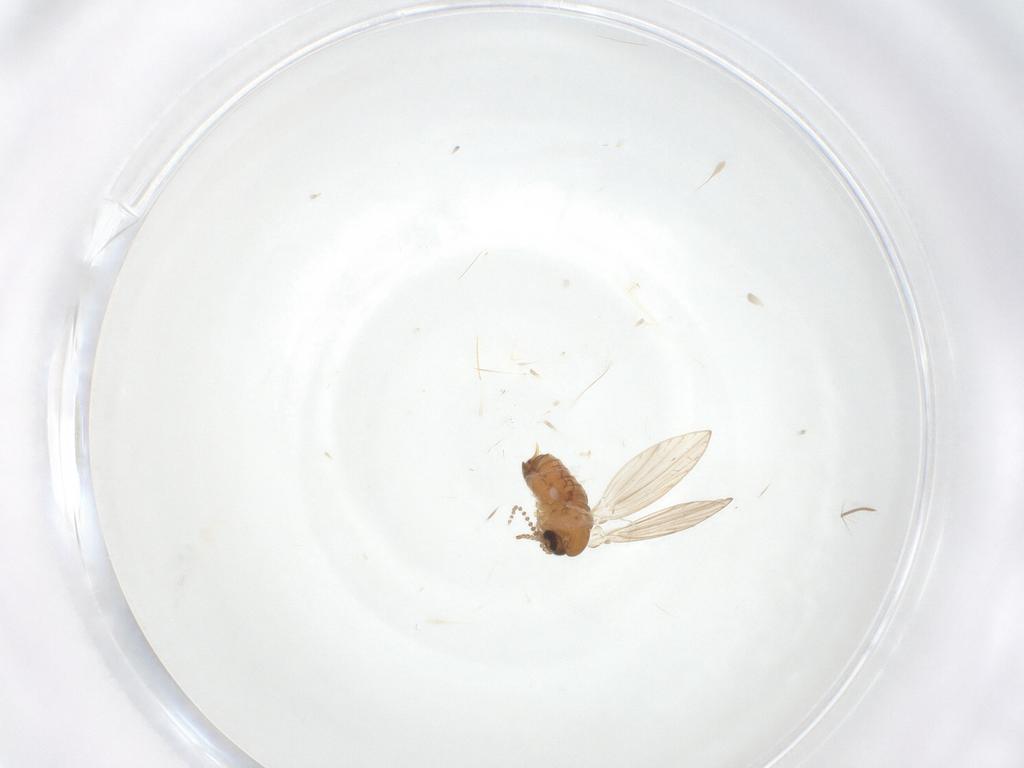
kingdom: Animalia
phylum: Arthropoda
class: Insecta
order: Diptera
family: Psychodidae
